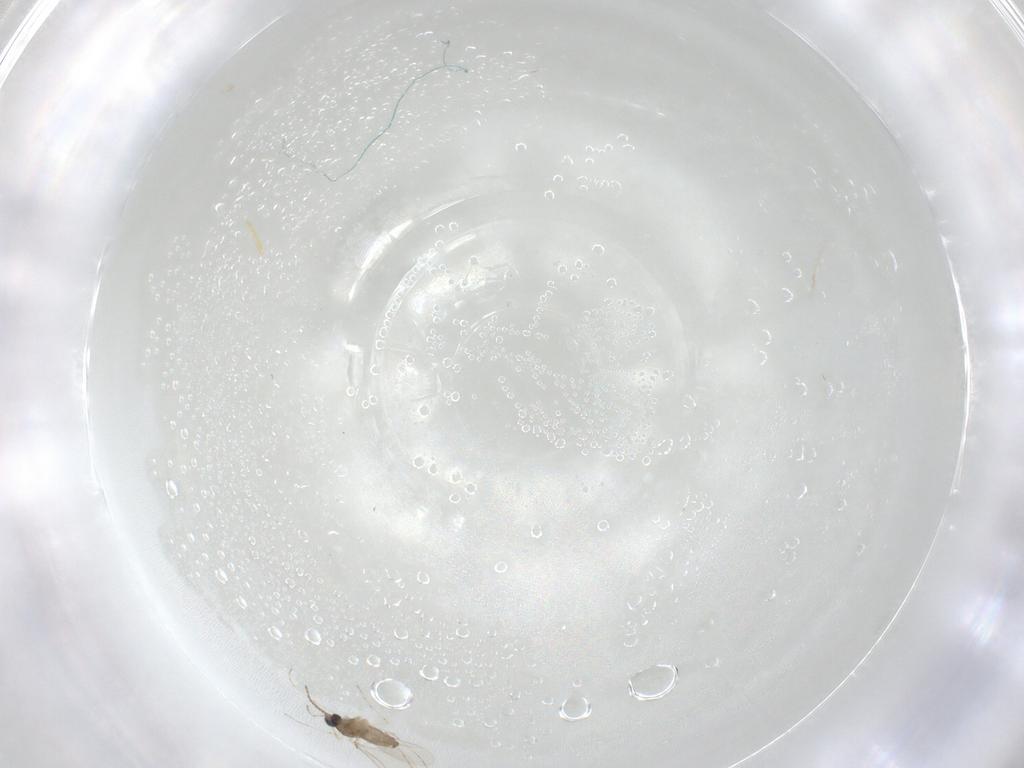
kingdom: Animalia
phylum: Arthropoda
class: Insecta
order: Diptera
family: Cecidomyiidae
